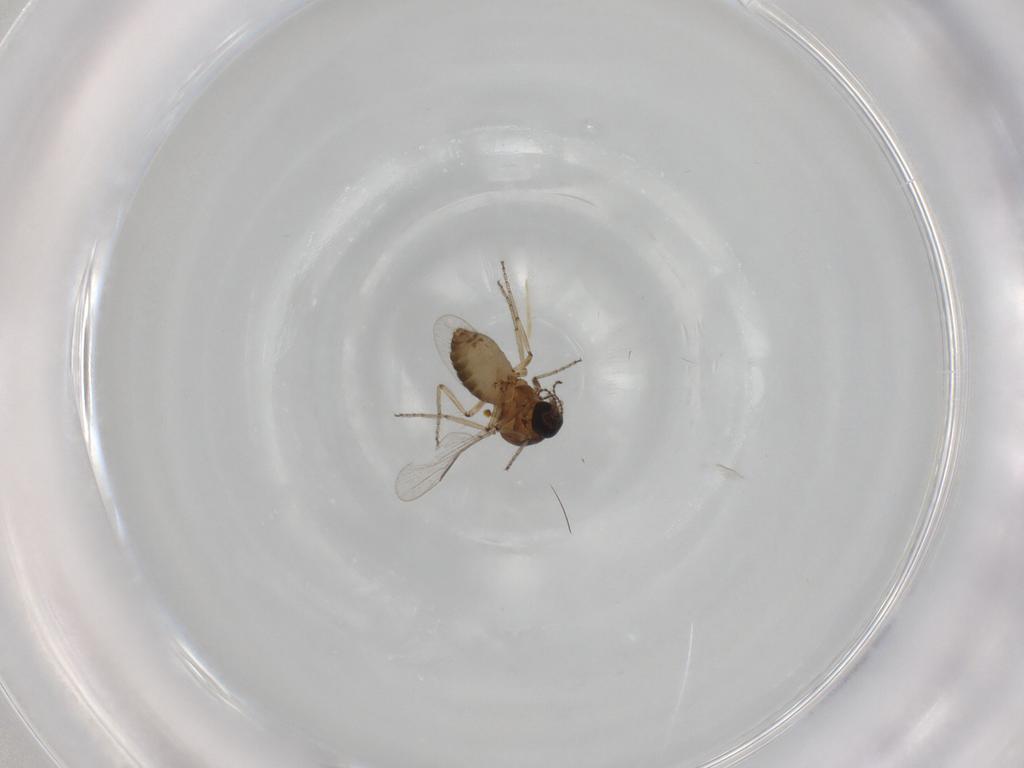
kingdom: Animalia
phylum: Arthropoda
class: Insecta
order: Diptera
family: Ceratopogonidae
